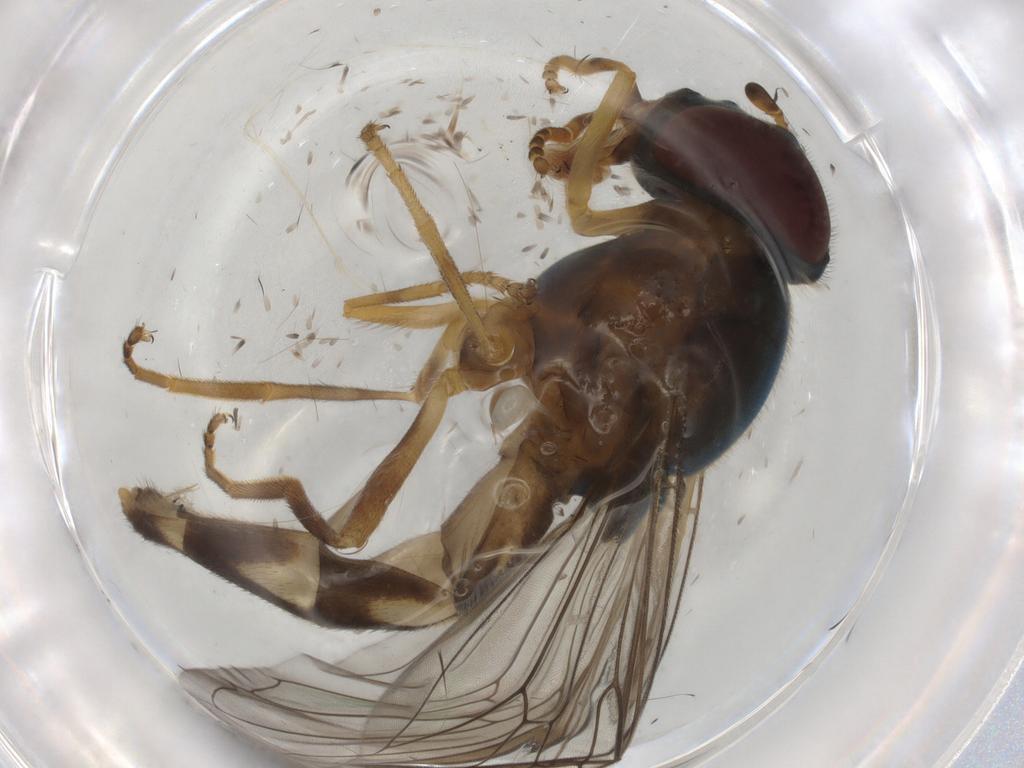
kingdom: Animalia
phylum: Arthropoda
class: Insecta
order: Diptera
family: Syrphidae
